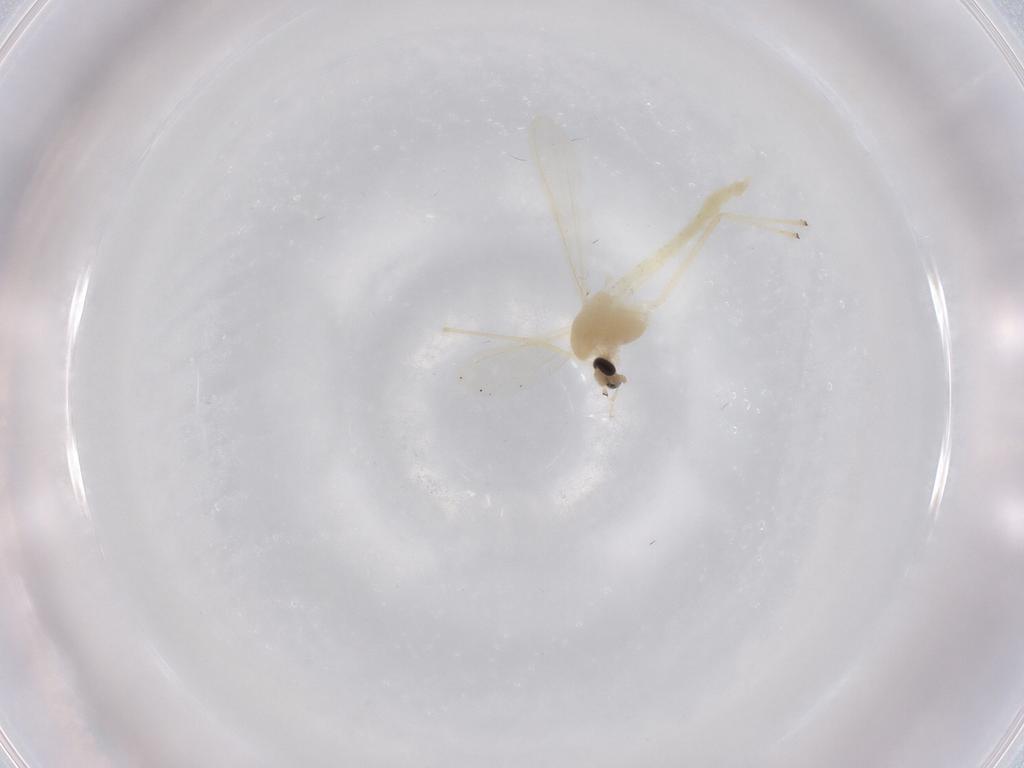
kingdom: Animalia
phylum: Arthropoda
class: Insecta
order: Diptera
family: Chironomidae
